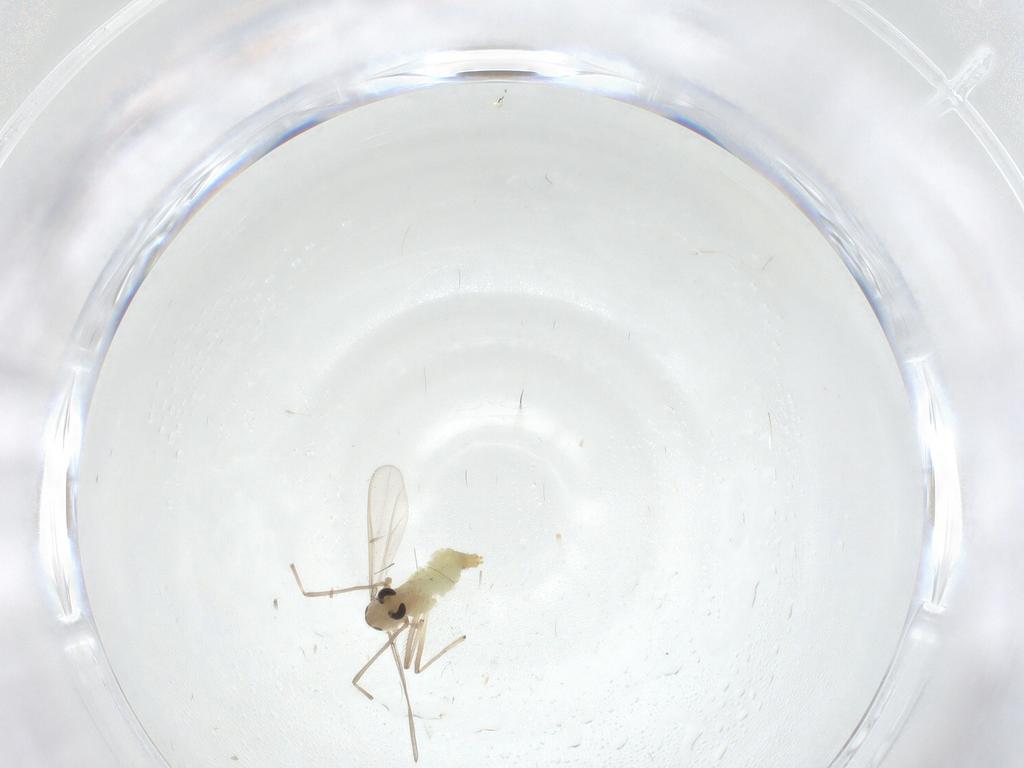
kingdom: Animalia
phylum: Arthropoda
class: Insecta
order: Diptera
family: Chironomidae
